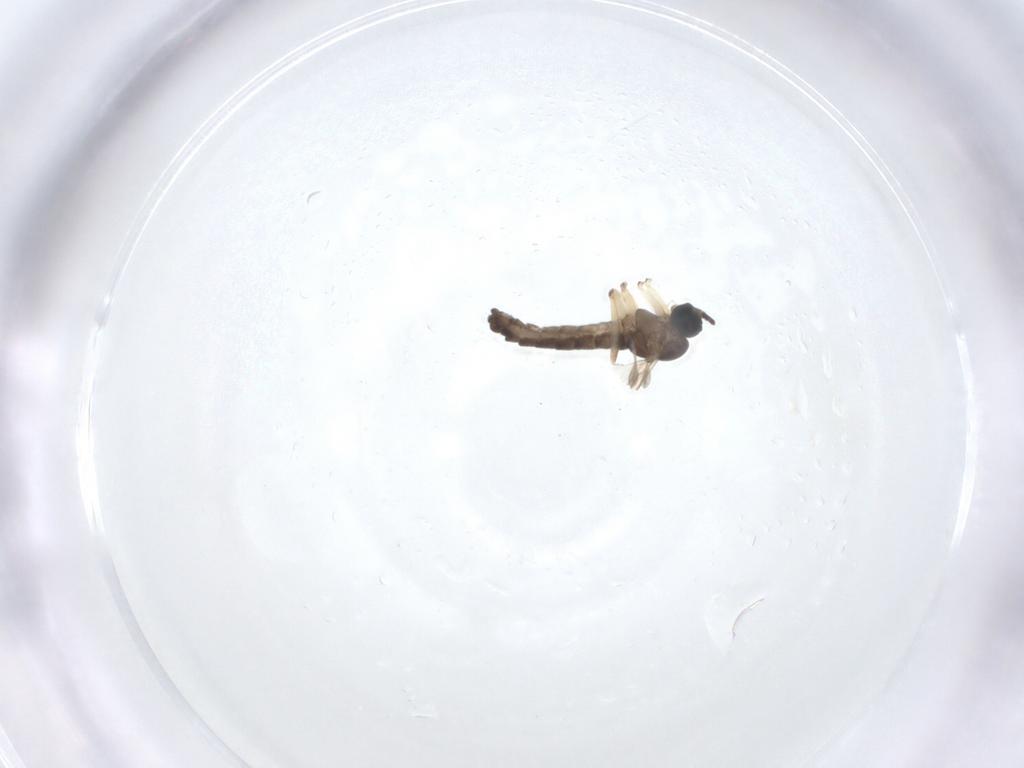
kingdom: Animalia
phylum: Arthropoda
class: Insecta
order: Diptera
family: Sciaridae
